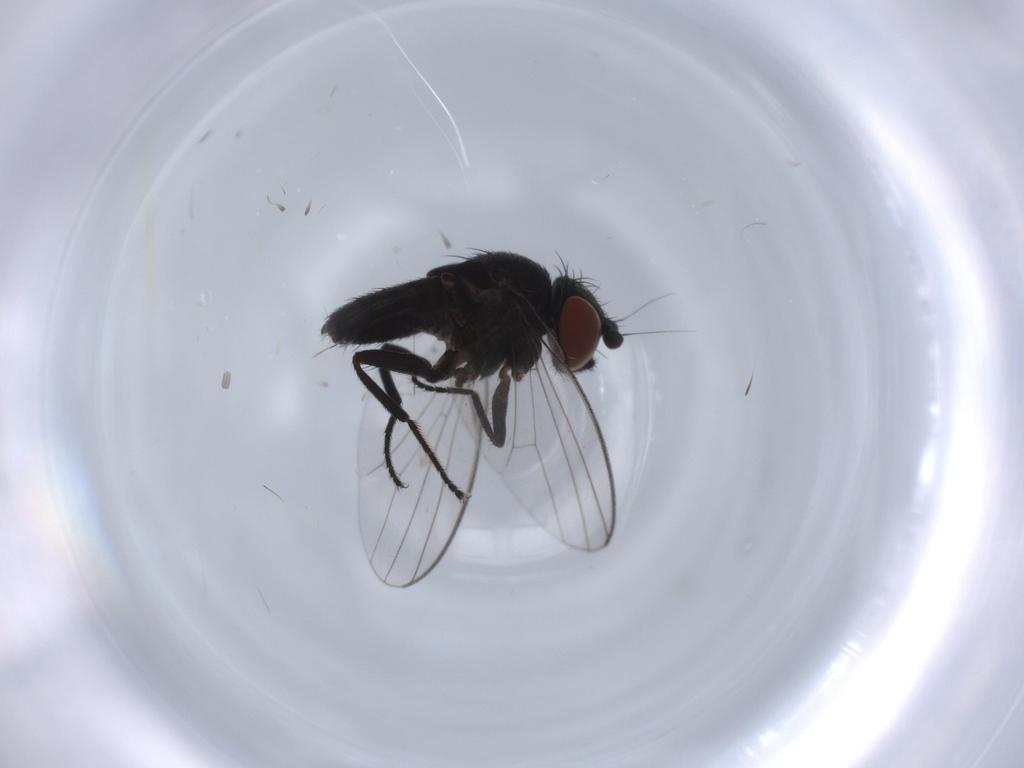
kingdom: Animalia
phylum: Arthropoda
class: Insecta
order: Diptera
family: Milichiidae
